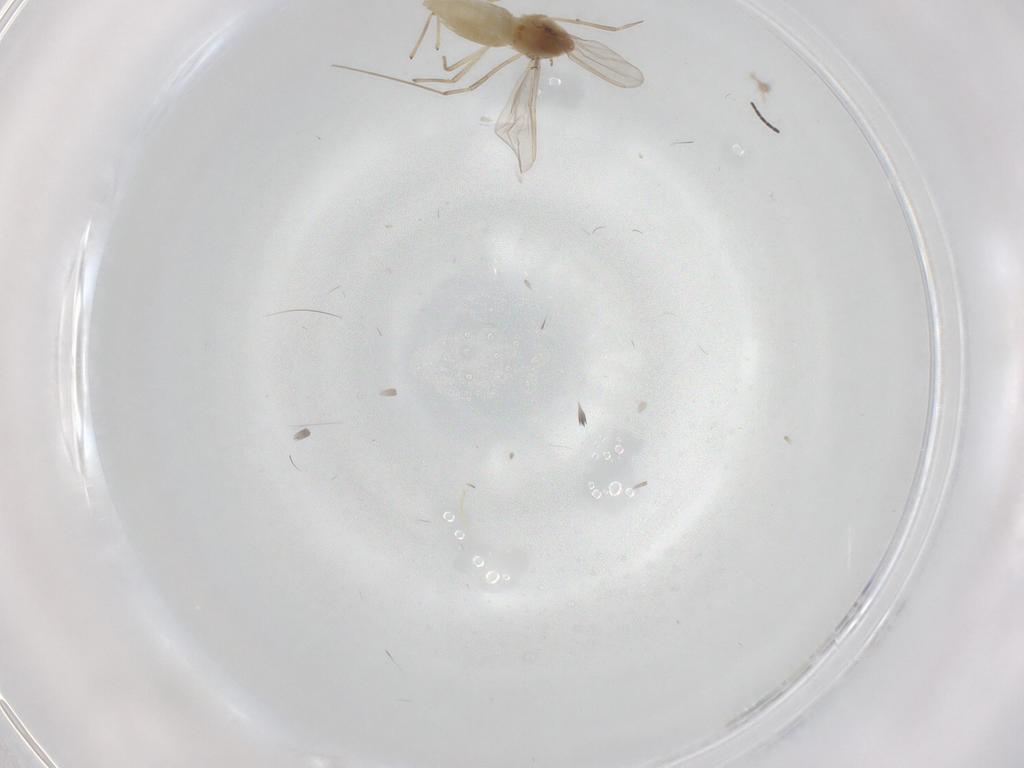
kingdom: Animalia
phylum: Arthropoda
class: Insecta
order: Diptera
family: Chironomidae
